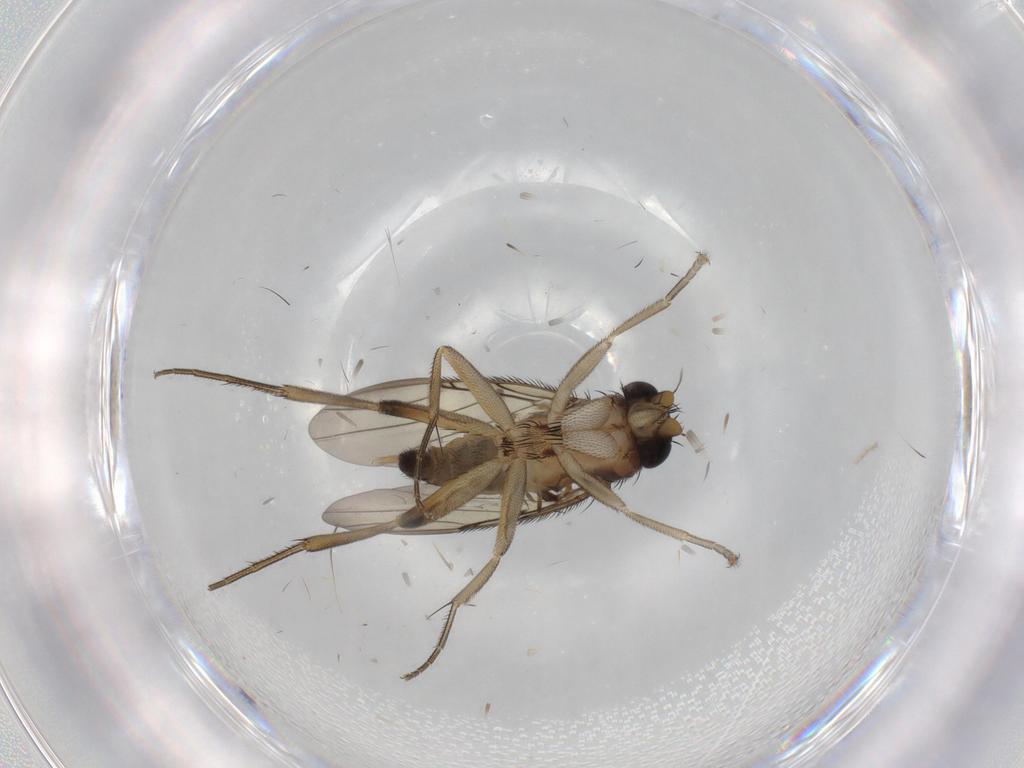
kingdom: Animalia
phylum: Arthropoda
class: Insecta
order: Diptera
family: Phoridae
